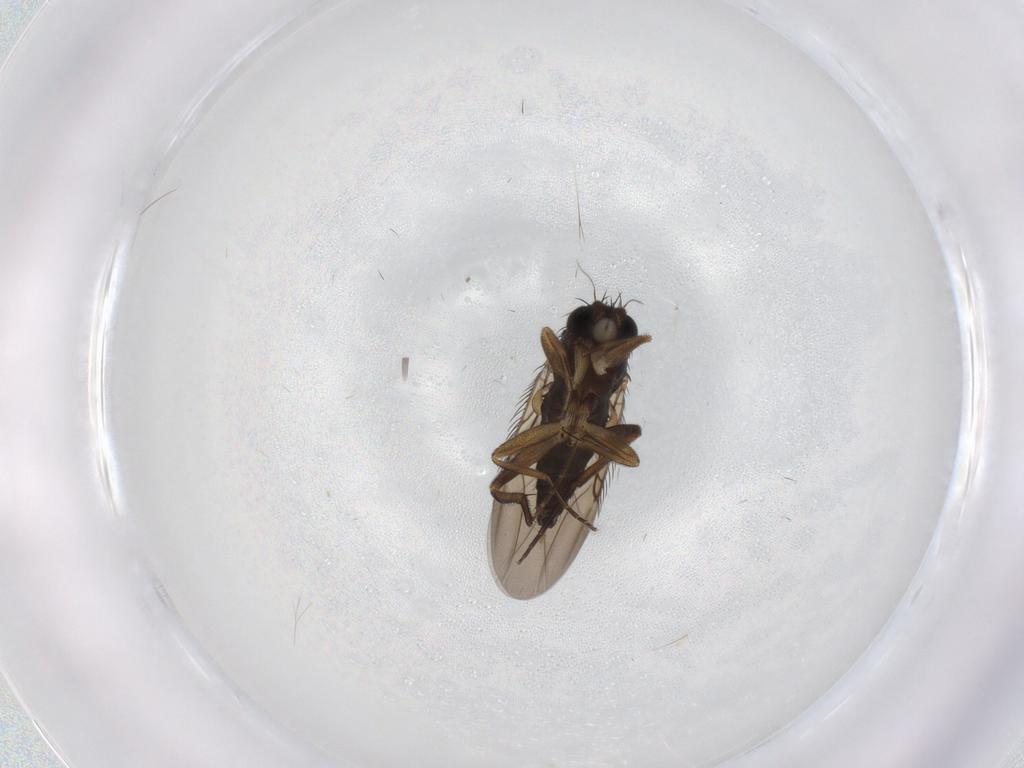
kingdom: Animalia
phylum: Arthropoda
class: Insecta
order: Diptera
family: Phoridae
